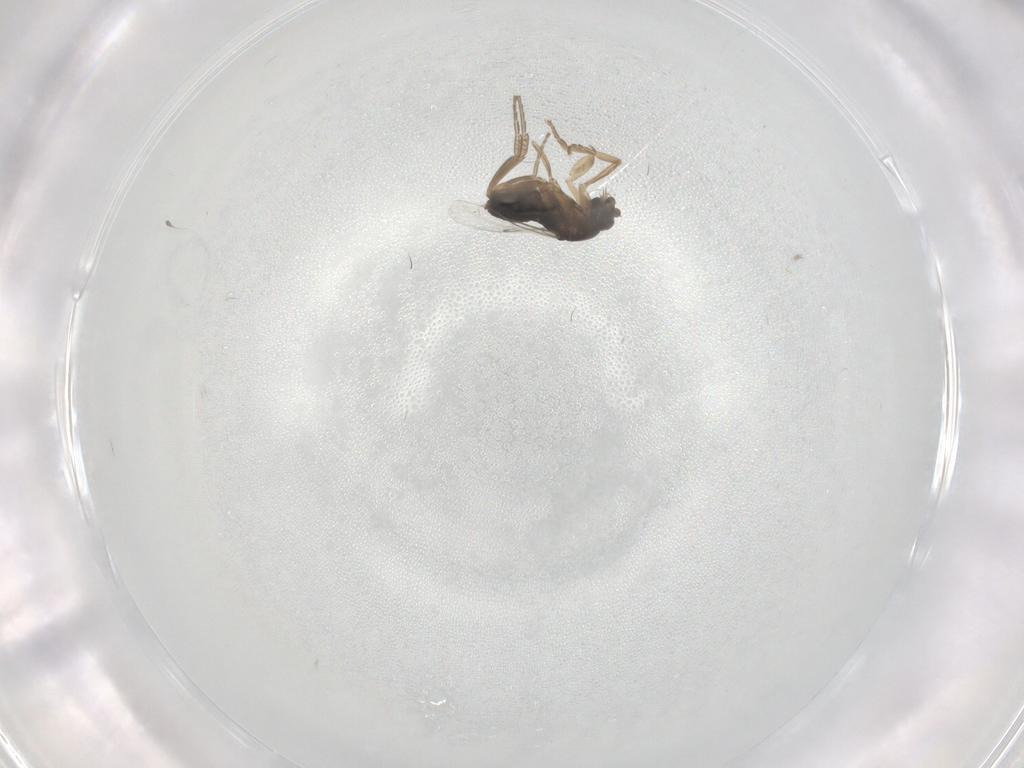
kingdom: Animalia
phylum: Arthropoda
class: Insecta
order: Diptera
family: Phoridae
